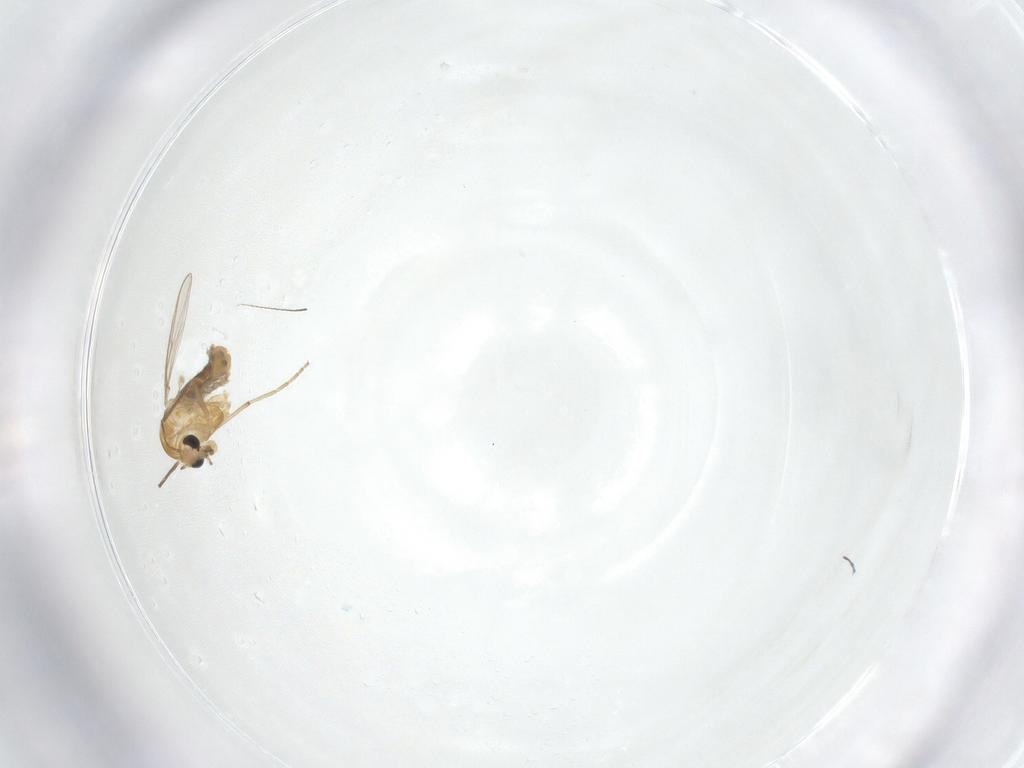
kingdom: Animalia
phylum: Arthropoda
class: Insecta
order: Diptera
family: Chironomidae
